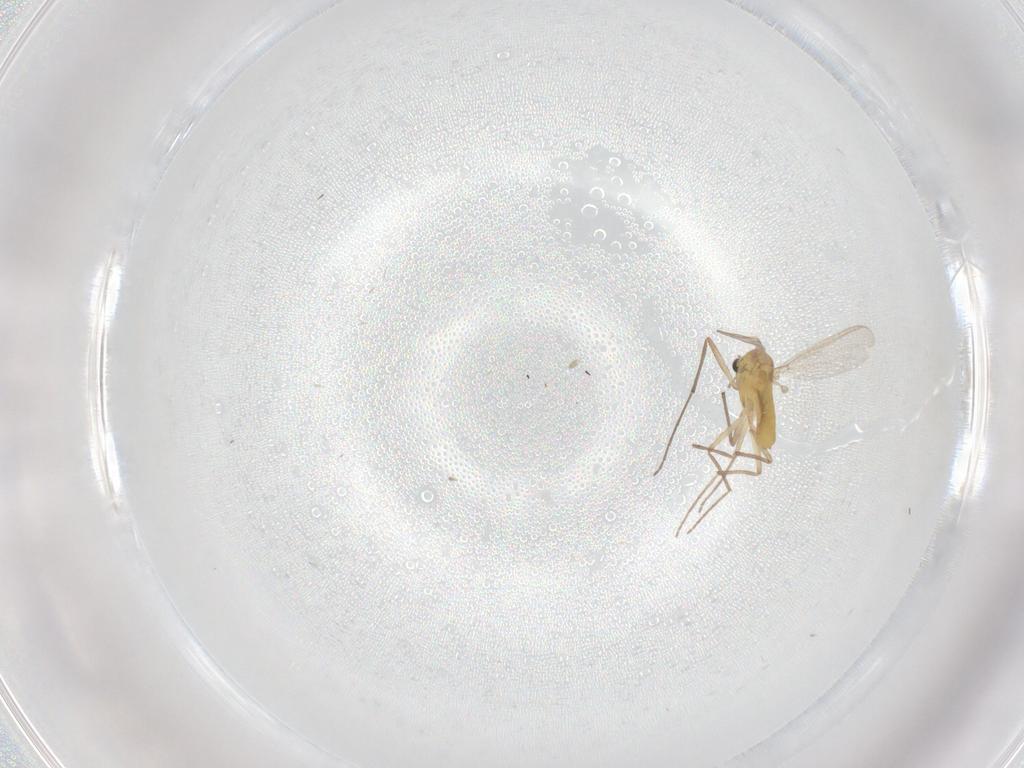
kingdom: Animalia
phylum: Arthropoda
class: Insecta
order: Diptera
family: Chironomidae
